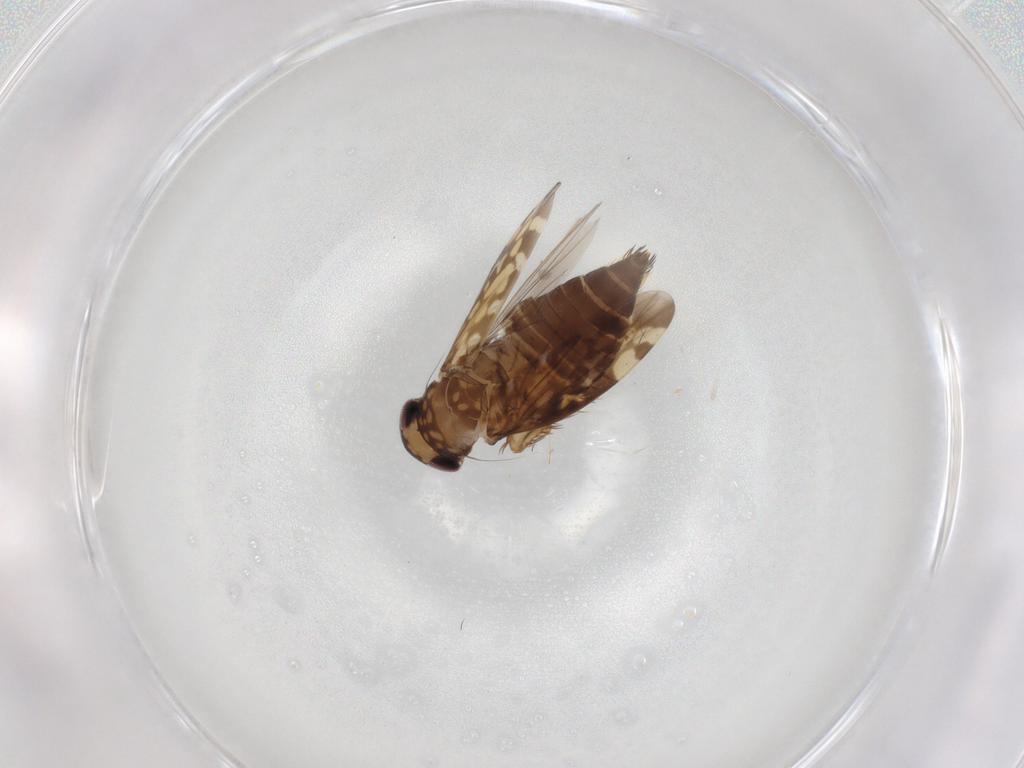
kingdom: Animalia
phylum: Arthropoda
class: Insecta
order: Hemiptera
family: Cicadellidae
